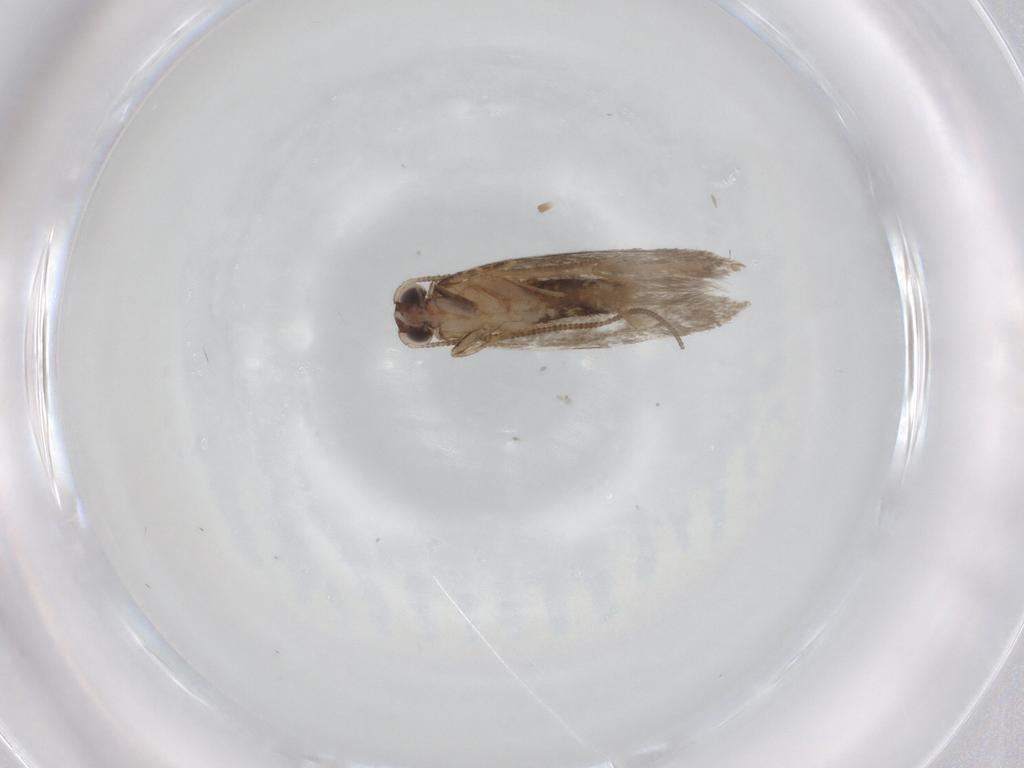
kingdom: Animalia
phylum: Arthropoda
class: Insecta
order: Lepidoptera
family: Tineidae
